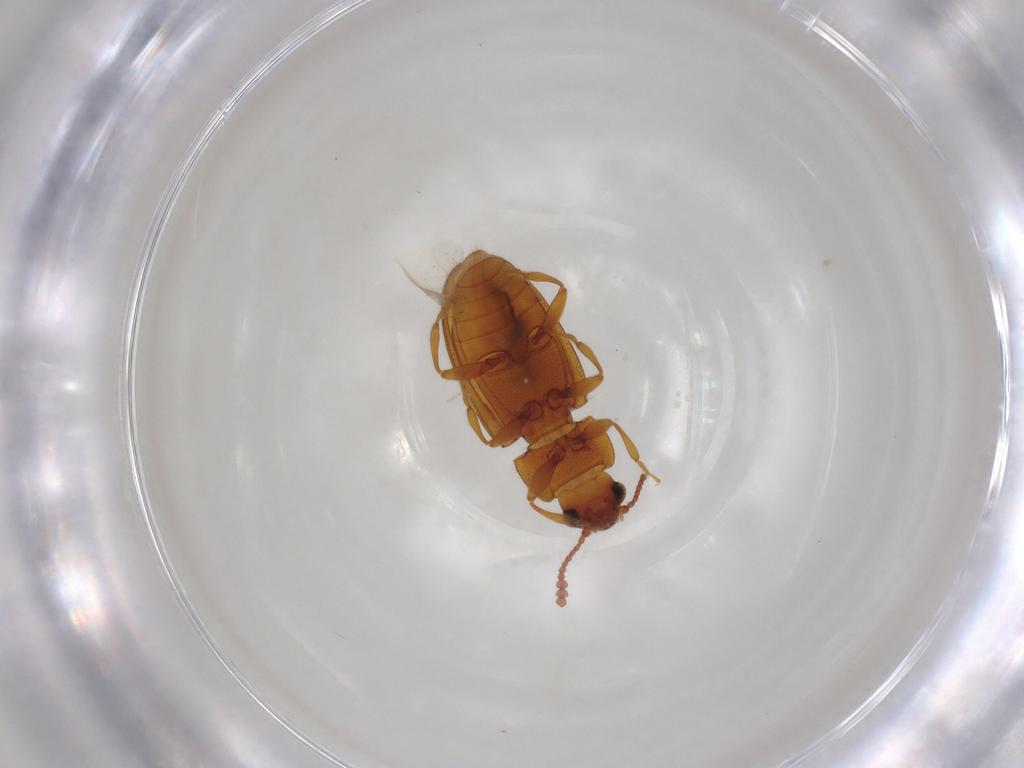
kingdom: Animalia
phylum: Arthropoda
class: Insecta
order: Coleoptera
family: Erotylidae
